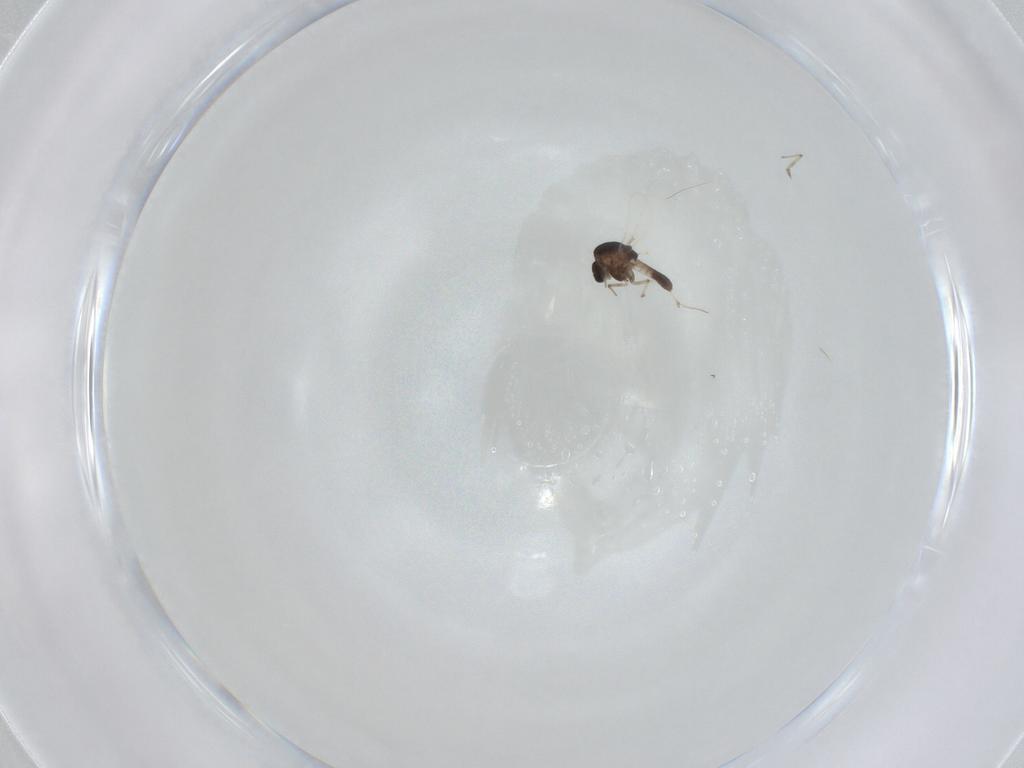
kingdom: Animalia
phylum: Arthropoda
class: Insecta
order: Diptera
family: Chironomidae
